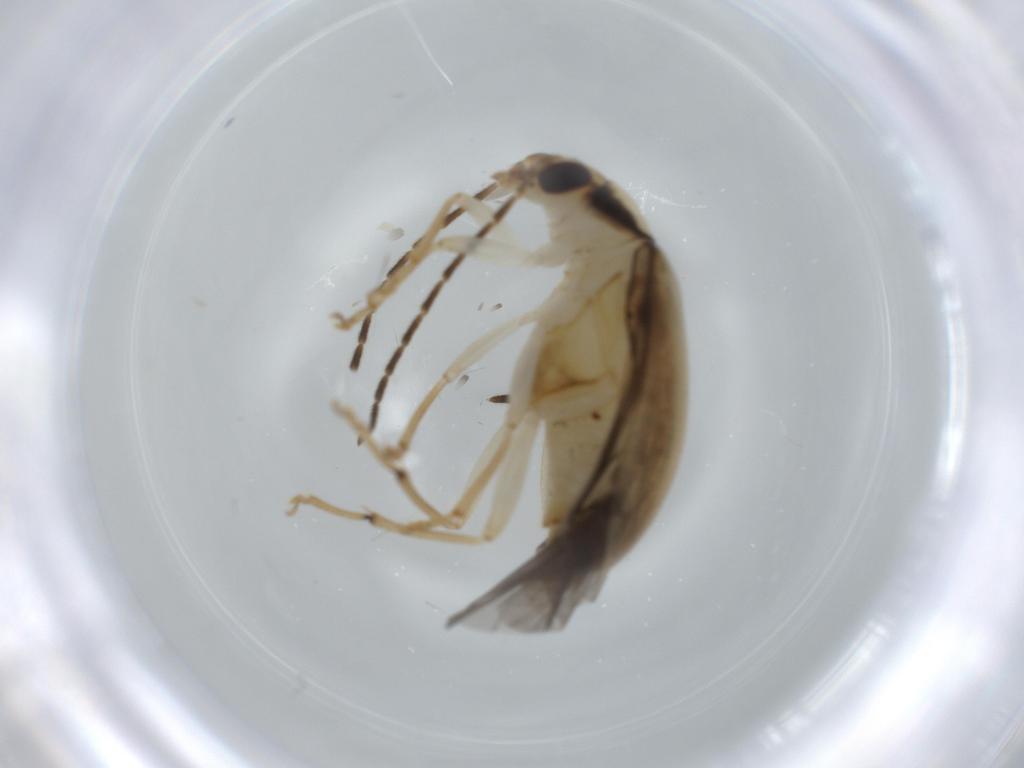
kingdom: Animalia
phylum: Arthropoda
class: Insecta
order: Coleoptera
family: Chrysomelidae
